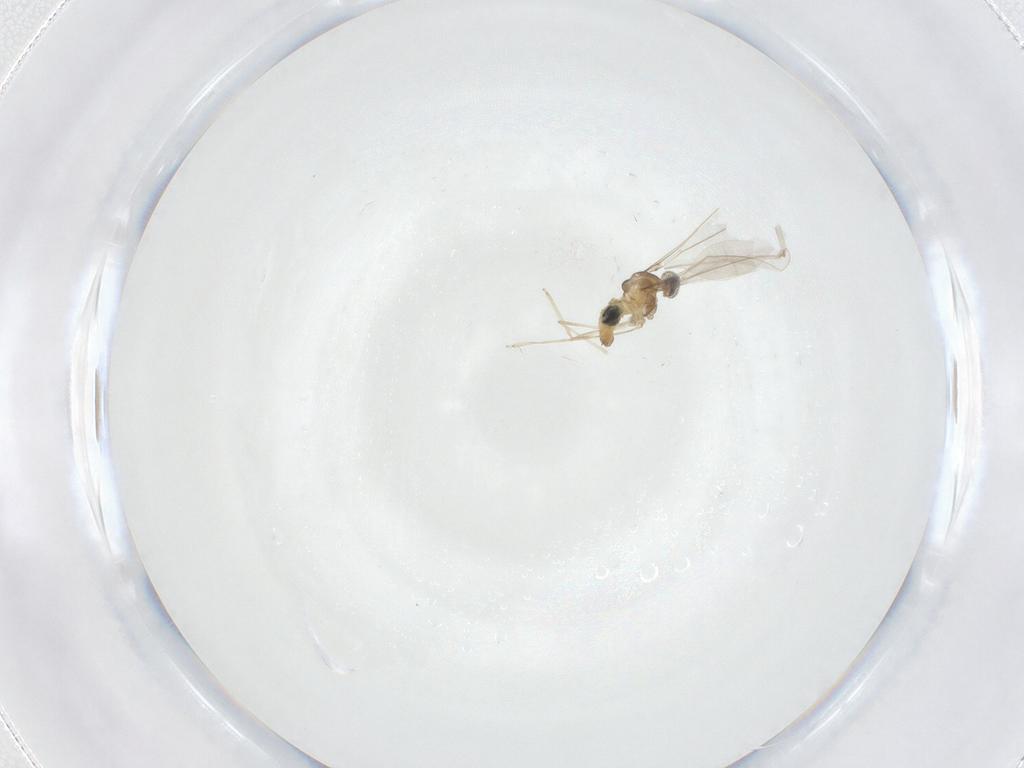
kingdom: Animalia
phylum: Arthropoda
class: Insecta
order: Diptera
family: Cecidomyiidae
